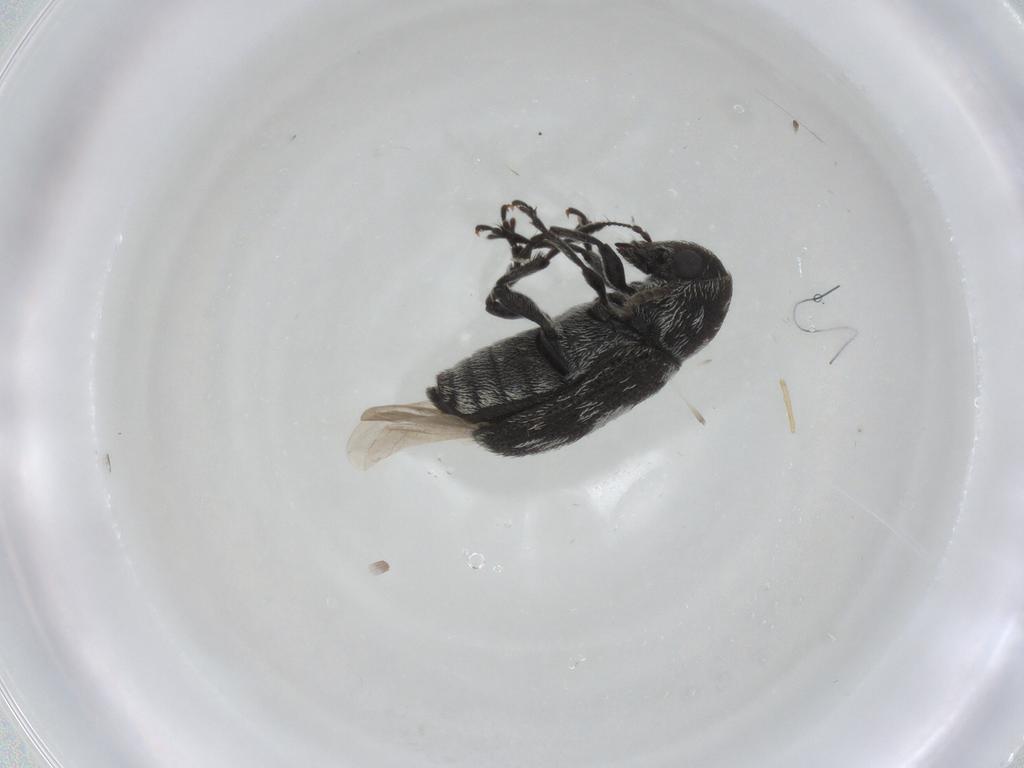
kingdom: Animalia
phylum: Arthropoda
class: Insecta
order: Coleoptera
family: Anthribidae
